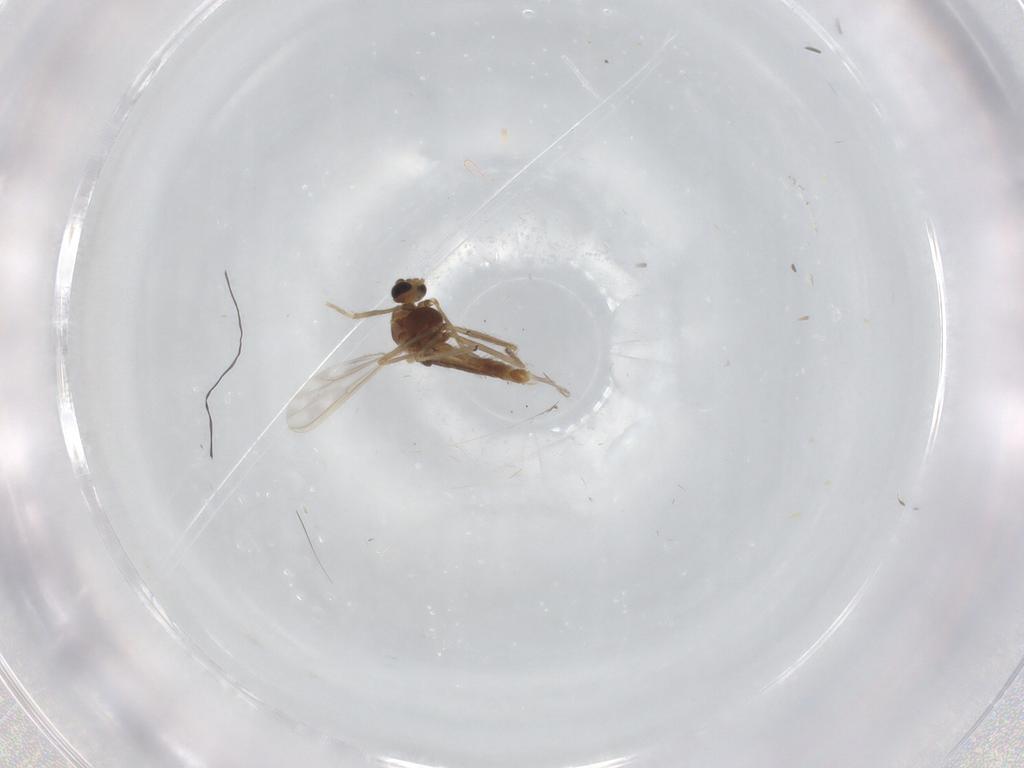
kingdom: Animalia
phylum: Arthropoda
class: Insecta
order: Diptera
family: Chironomidae
